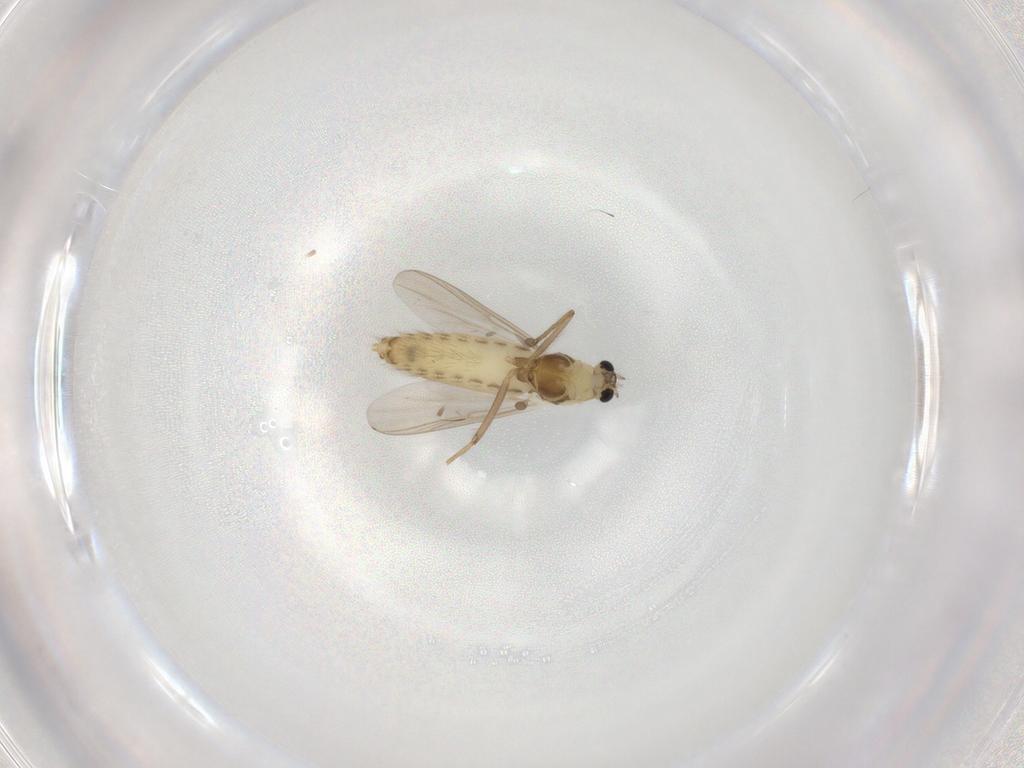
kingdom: Animalia
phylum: Arthropoda
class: Insecta
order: Diptera
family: Chironomidae
